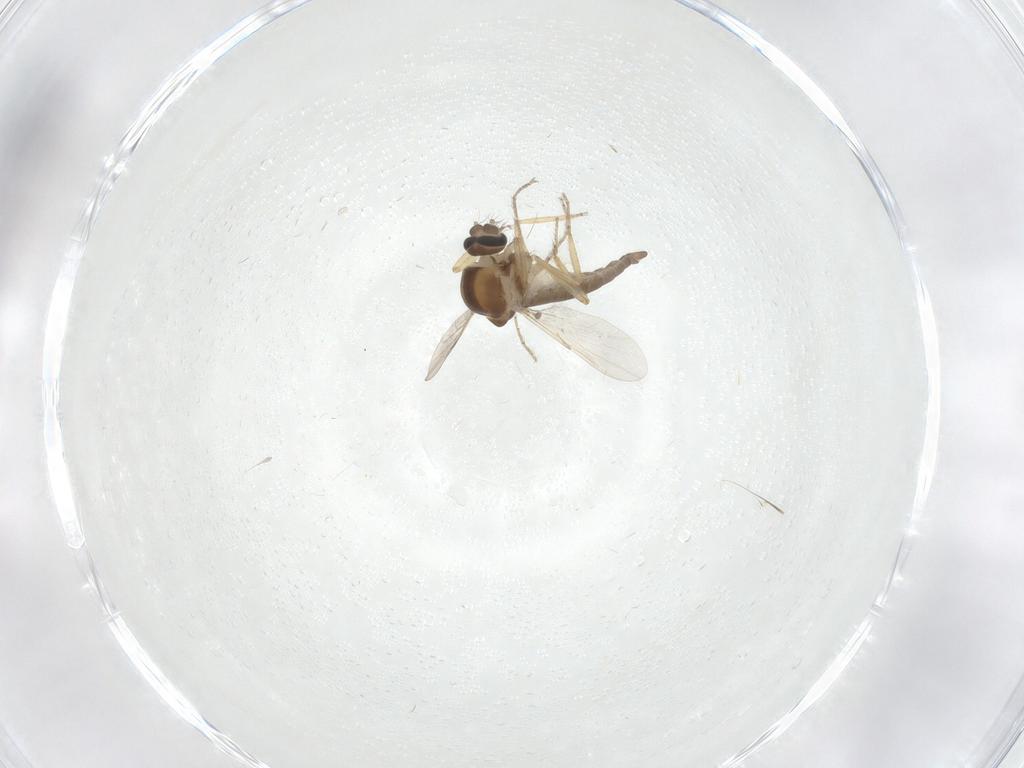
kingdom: Animalia
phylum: Arthropoda
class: Insecta
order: Diptera
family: Ceratopogonidae
